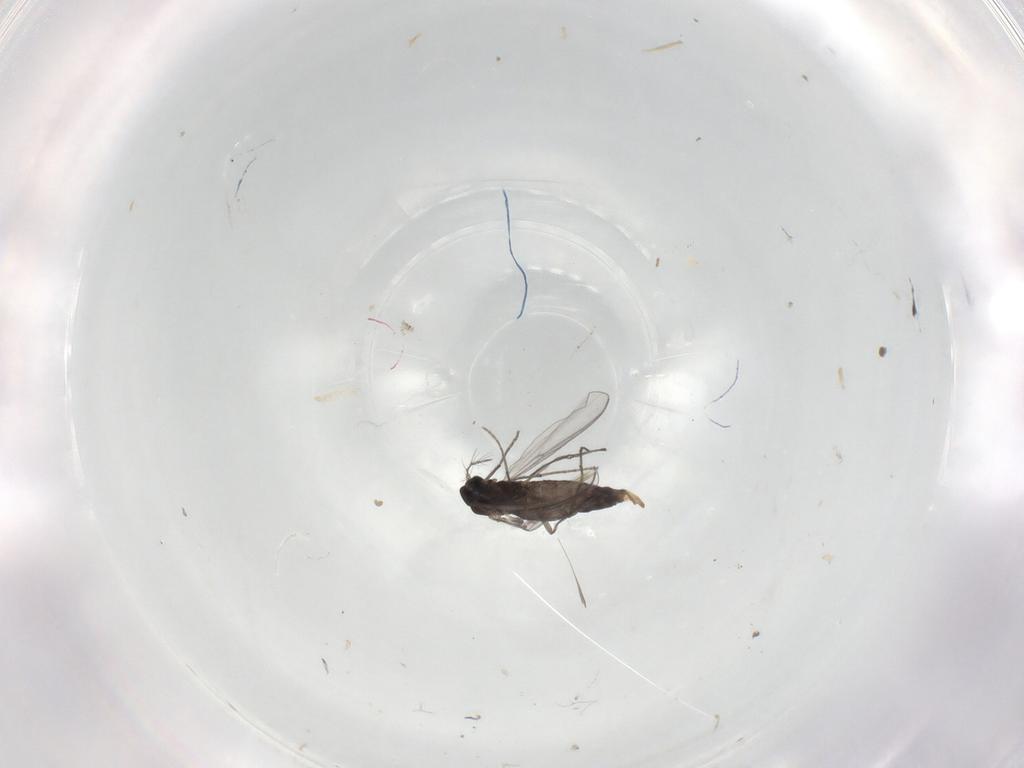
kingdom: Animalia
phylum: Arthropoda
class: Insecta
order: Diptera
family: Chironomidae
